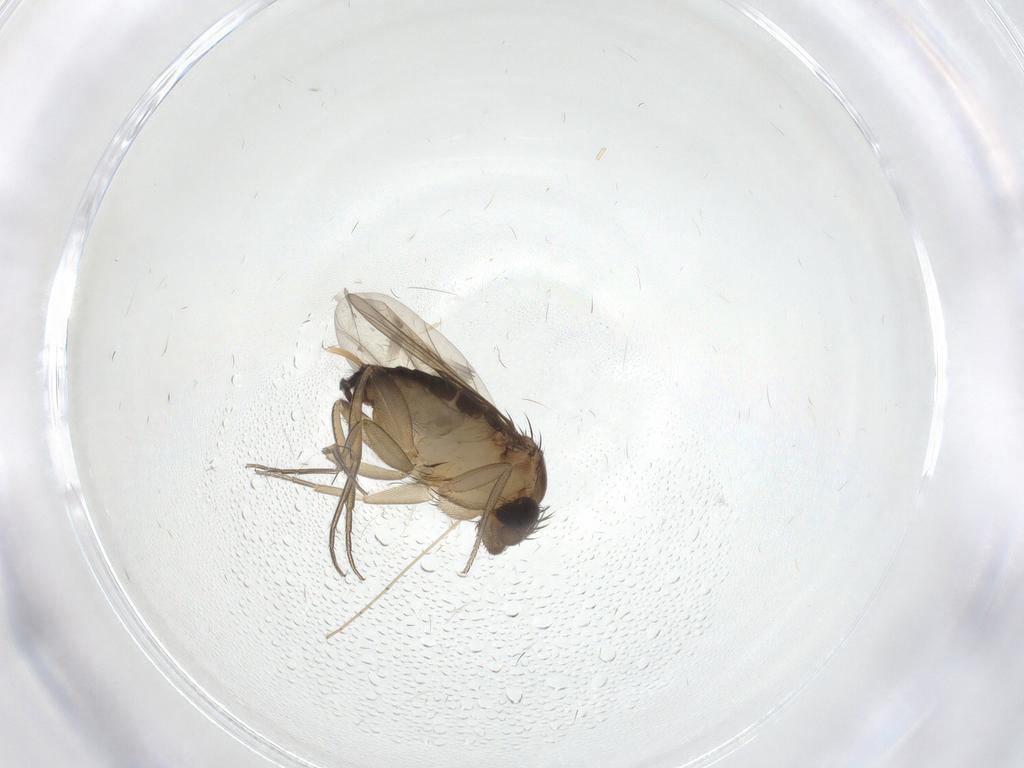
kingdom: Animalia
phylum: Arthropoda
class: Insecta
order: Diptera
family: Phoridae
